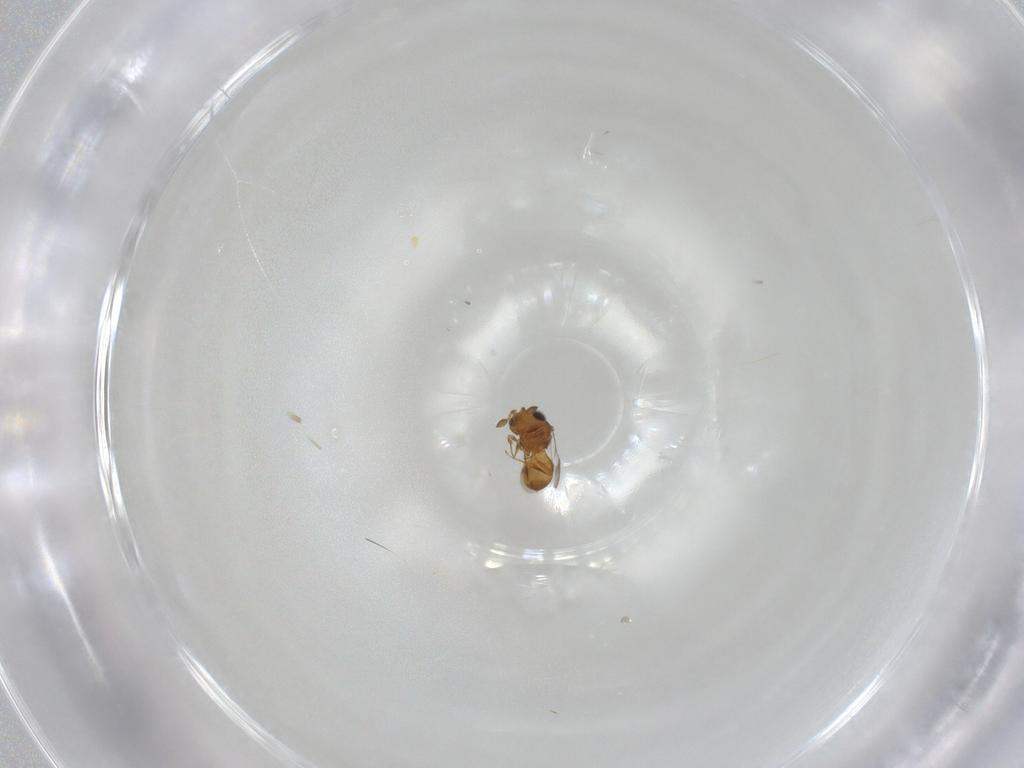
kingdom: Animalia
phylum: Arthropoda
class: Insecta
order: Hymenoptera
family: Scelionidae
